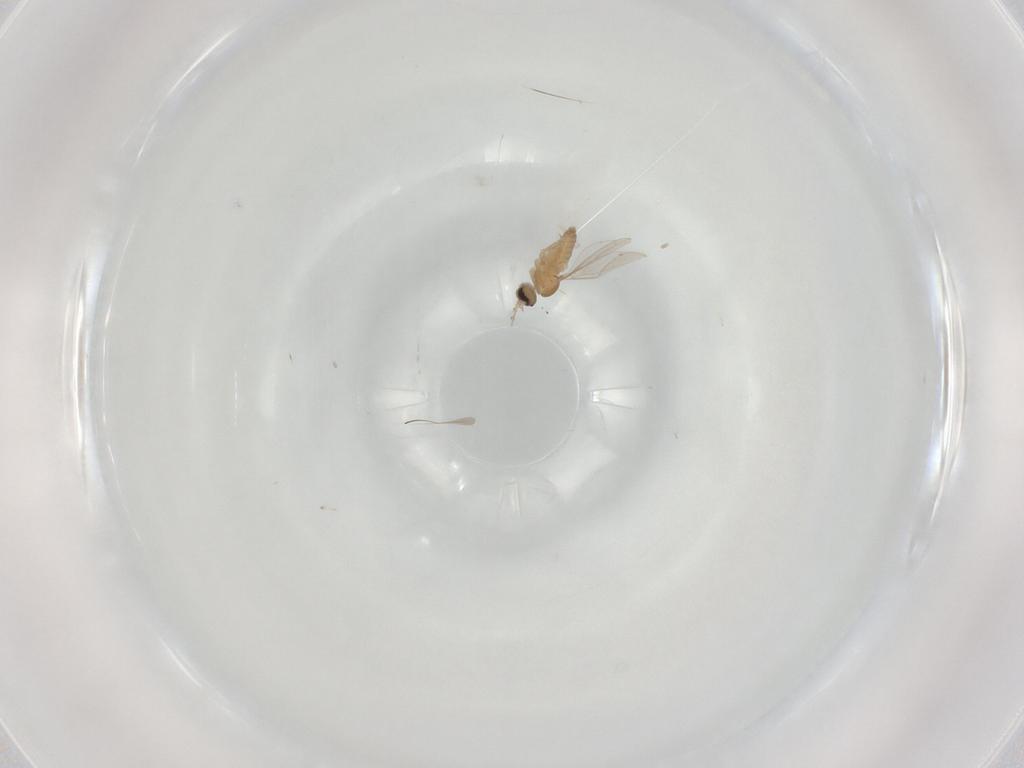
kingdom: Animalia
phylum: Arthropoda
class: Insecta
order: Diptera
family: Cecidomyiidae
